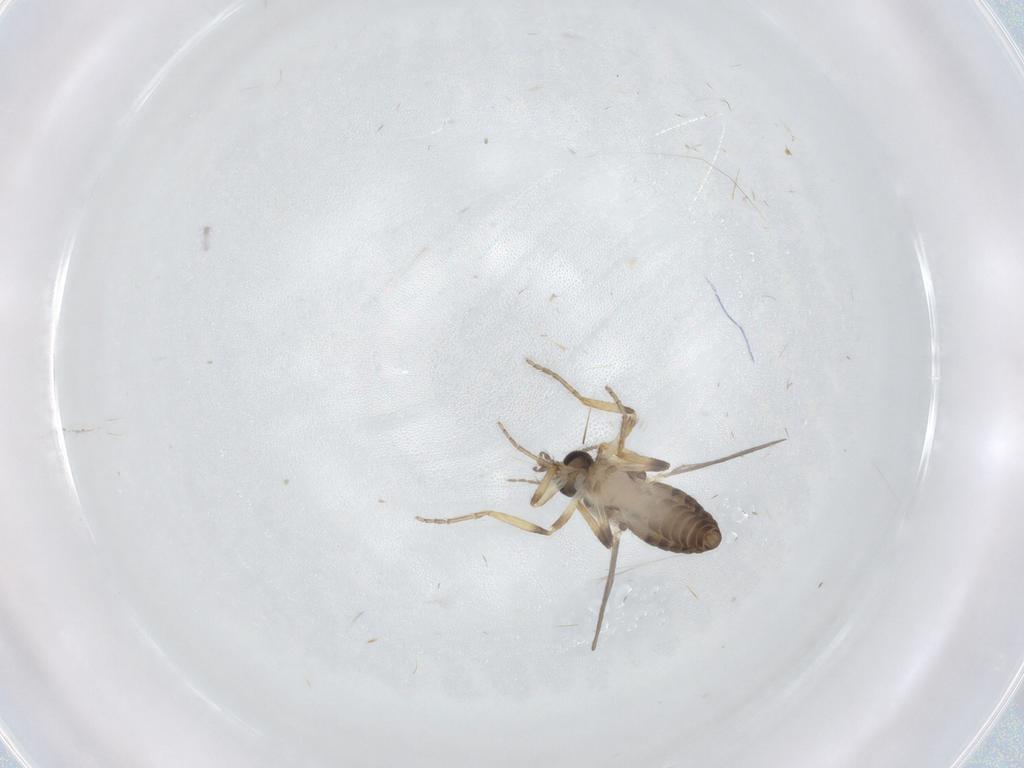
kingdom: Animalia
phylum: Arthropoda
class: Insecta
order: Diptera
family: Ceratopogonidae
